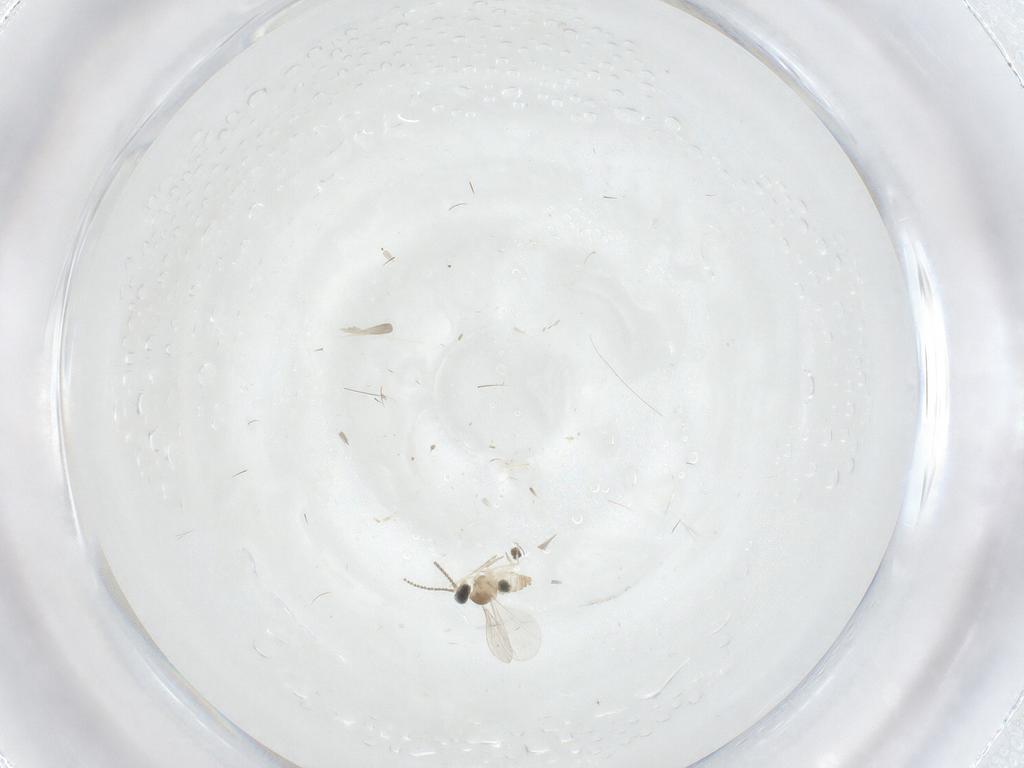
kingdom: Animalia
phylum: Arthropoda
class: Insecta
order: Diptera
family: Cecidomyiidae
